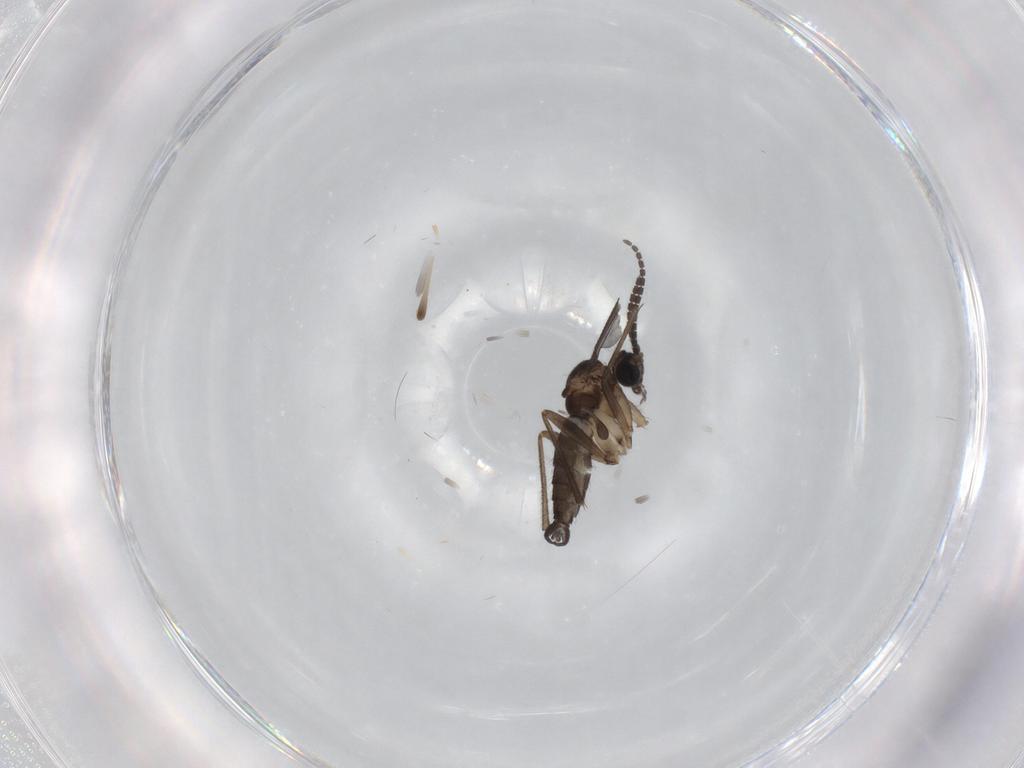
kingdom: Animalia
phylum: Arthropoda
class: Insecta
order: Diptera
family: Sciaridae
